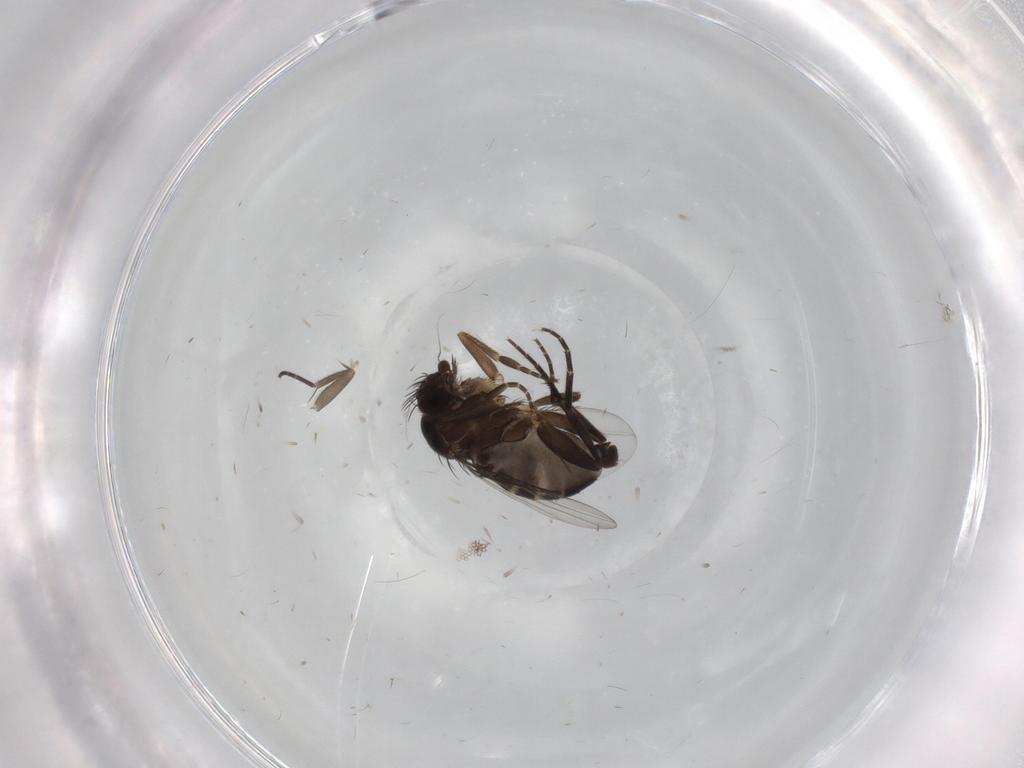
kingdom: Animalia
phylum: Arthropoda
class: Insecta
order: Diptera
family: Phoridae
